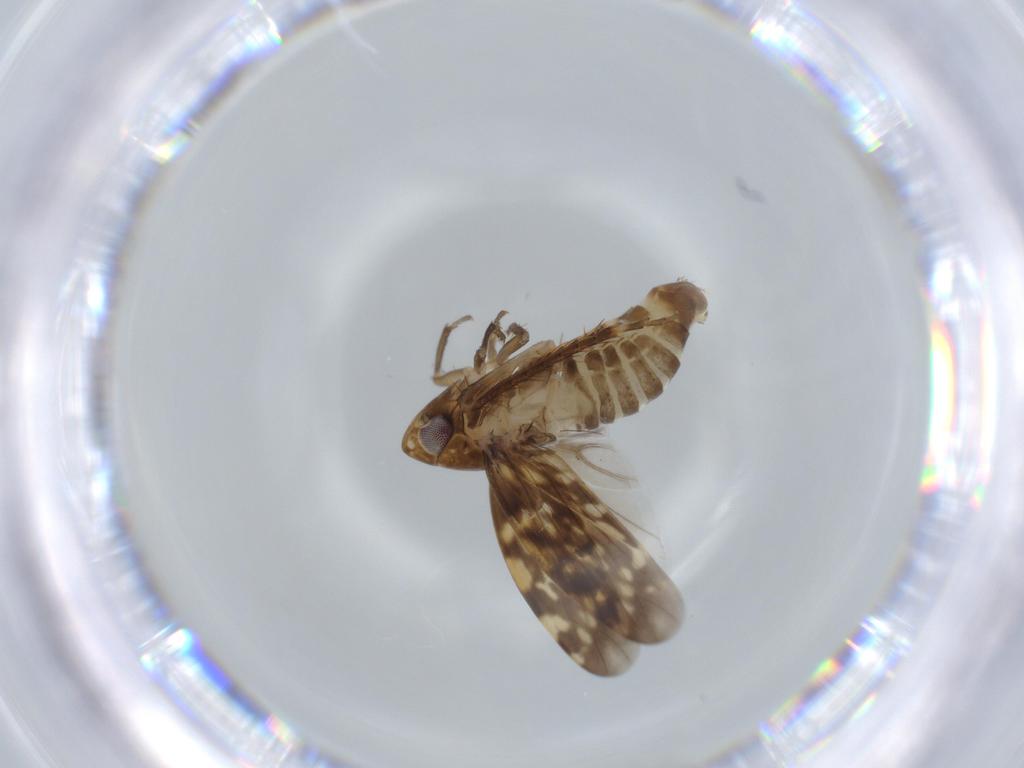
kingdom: Animalia
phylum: Arthropoda
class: Insecta
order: Hemiptera
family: Cicadellidae
